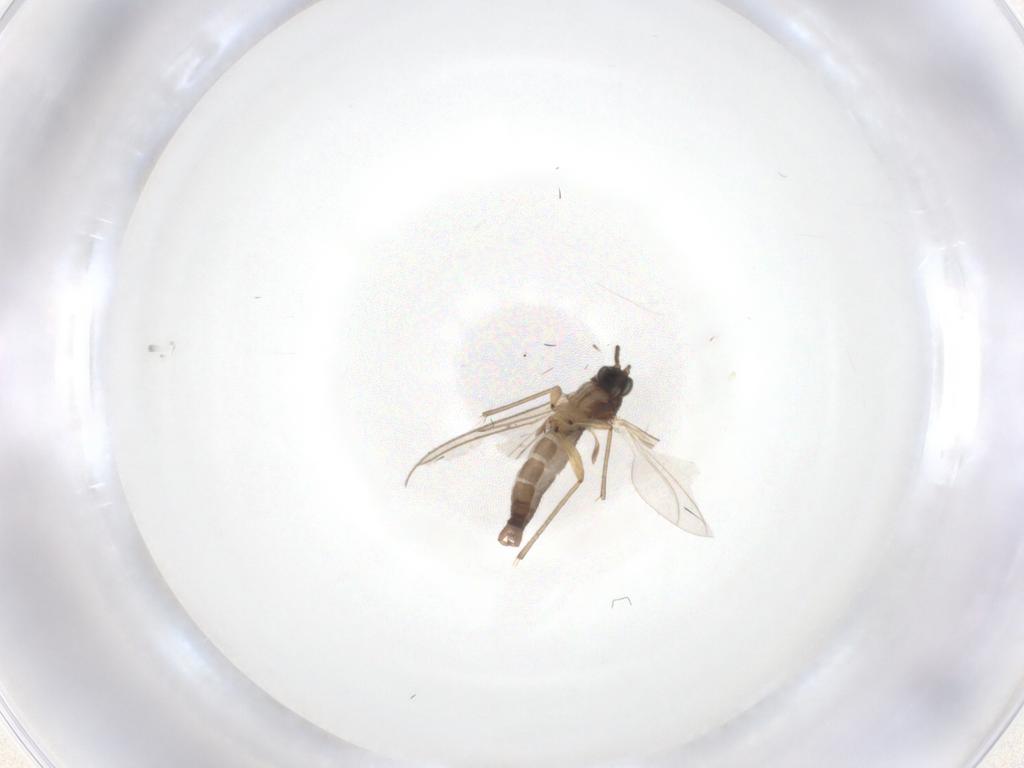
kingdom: Animalia
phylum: Arthropoda
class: Insecta
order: Diptera
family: Sciaridae
